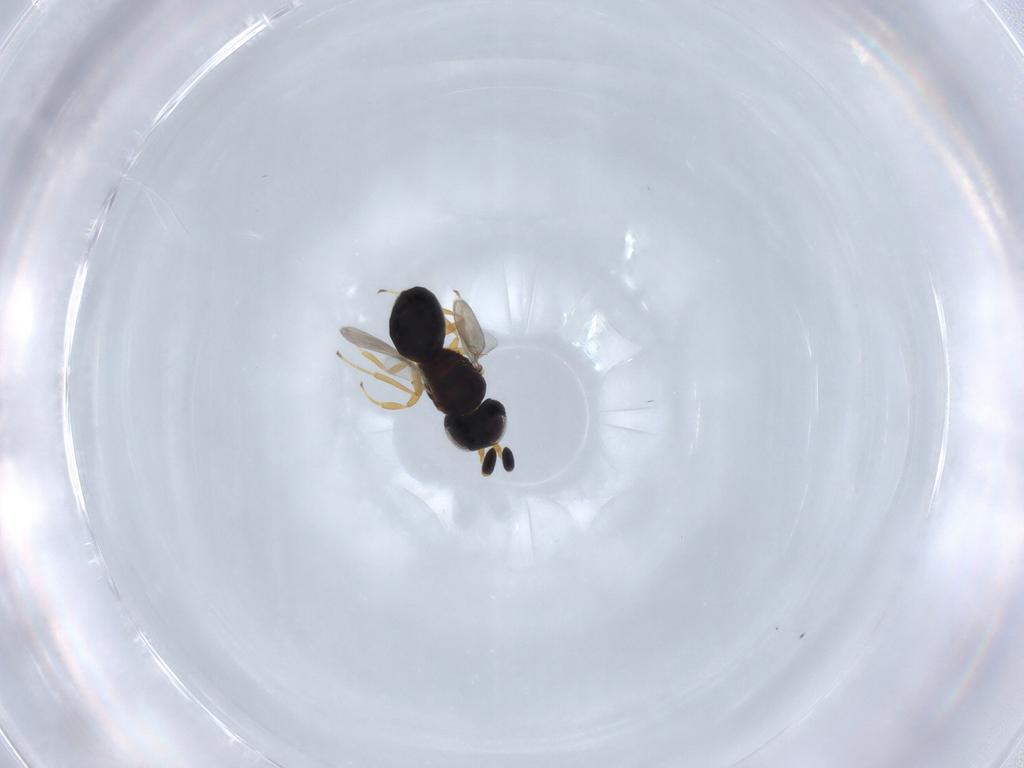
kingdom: Animalia
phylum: Arthropoda
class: Insecta
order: Hymenoptera
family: Scelionidae
